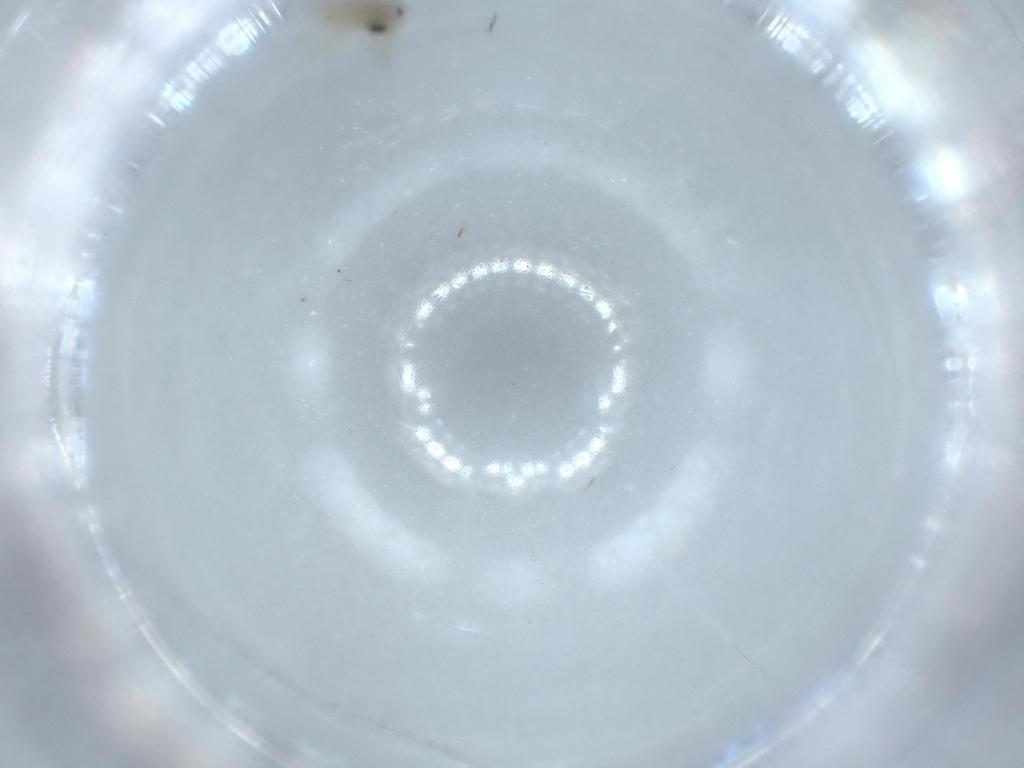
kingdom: Animalia
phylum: Arthropoda
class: Insecta
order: Diptera
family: Cecidomyiidae
